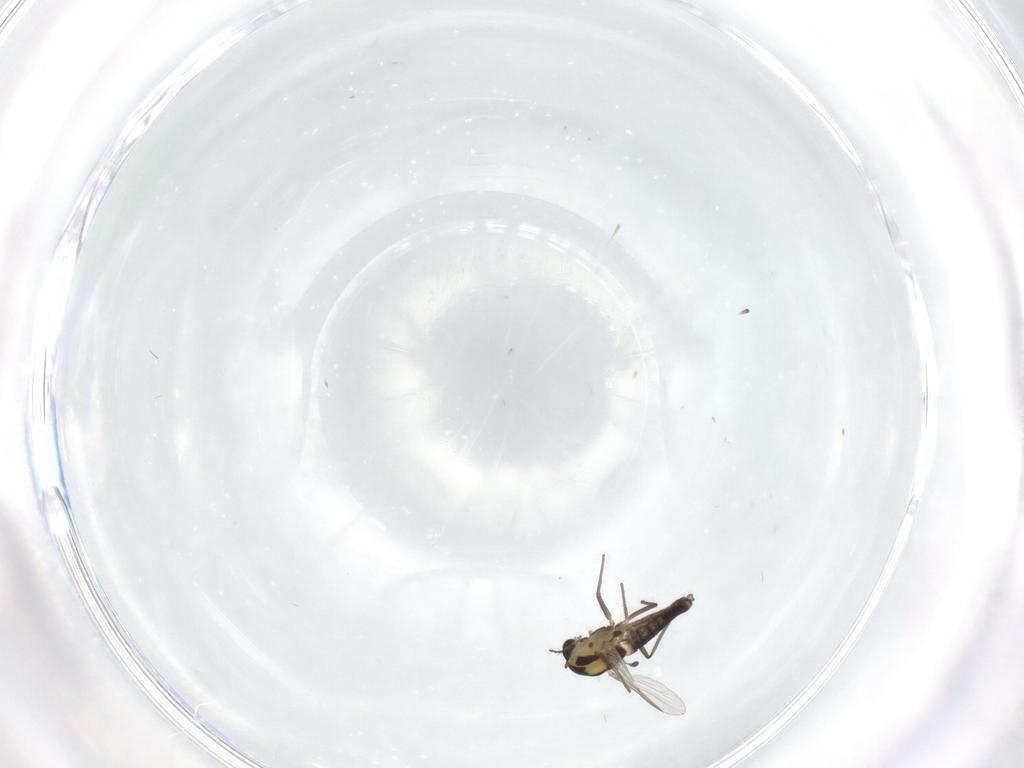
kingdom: Animalia
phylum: Arthropoda
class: Insecta
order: Diptera
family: Chironomidae
